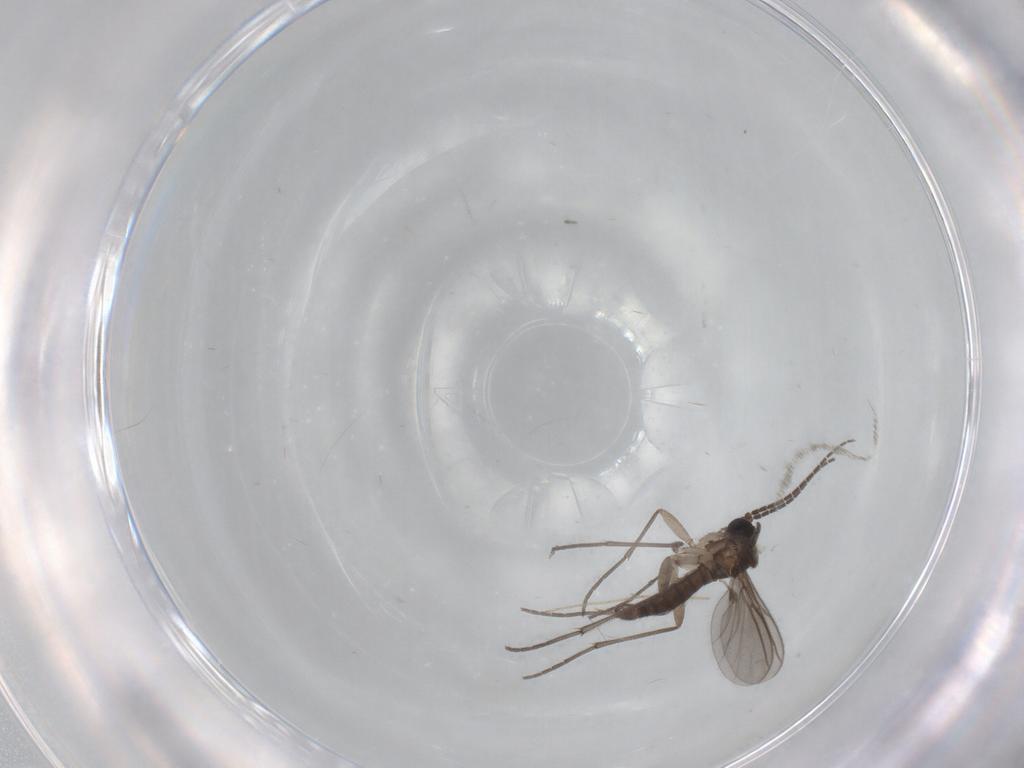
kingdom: Animalia
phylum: Arthropoda
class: Insecta
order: Diptera
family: Sciaridae
